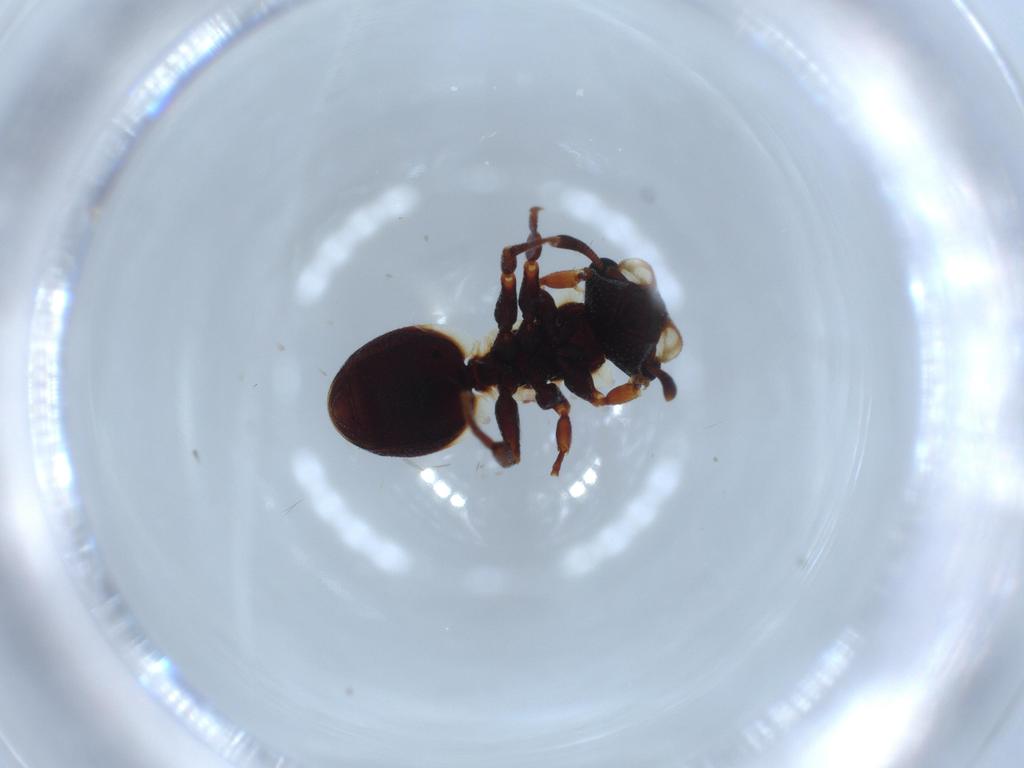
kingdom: Animalia
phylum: Arthropoda
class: Insecta
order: Hymenoptera
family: Formicidae
